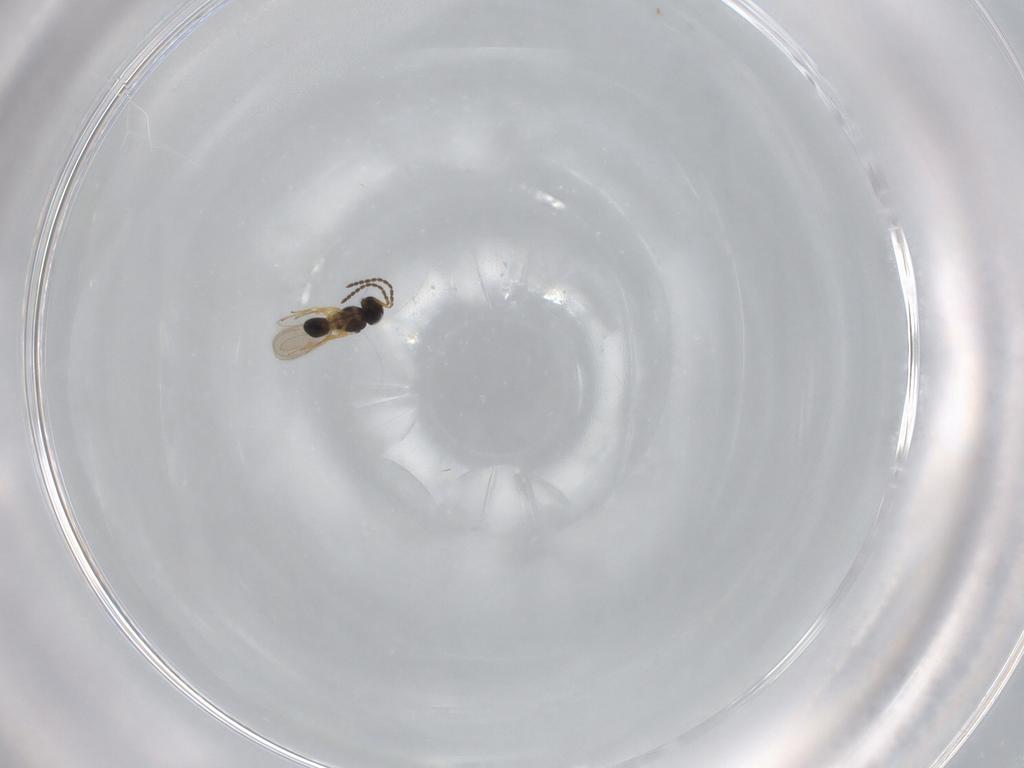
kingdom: Animalia
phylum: Arthropoda
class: Insecta
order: Hymenoptera
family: Scelionidae
